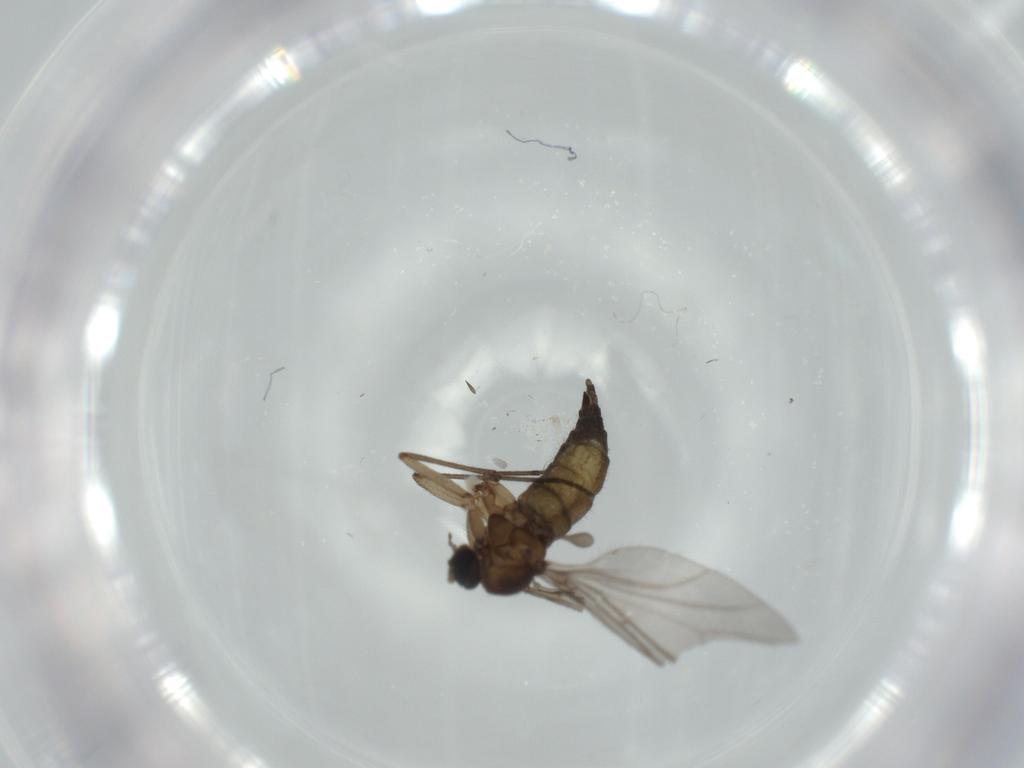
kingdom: Animalia
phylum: Arthropoda
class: Insecta
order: Diptera
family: Sciaridae
